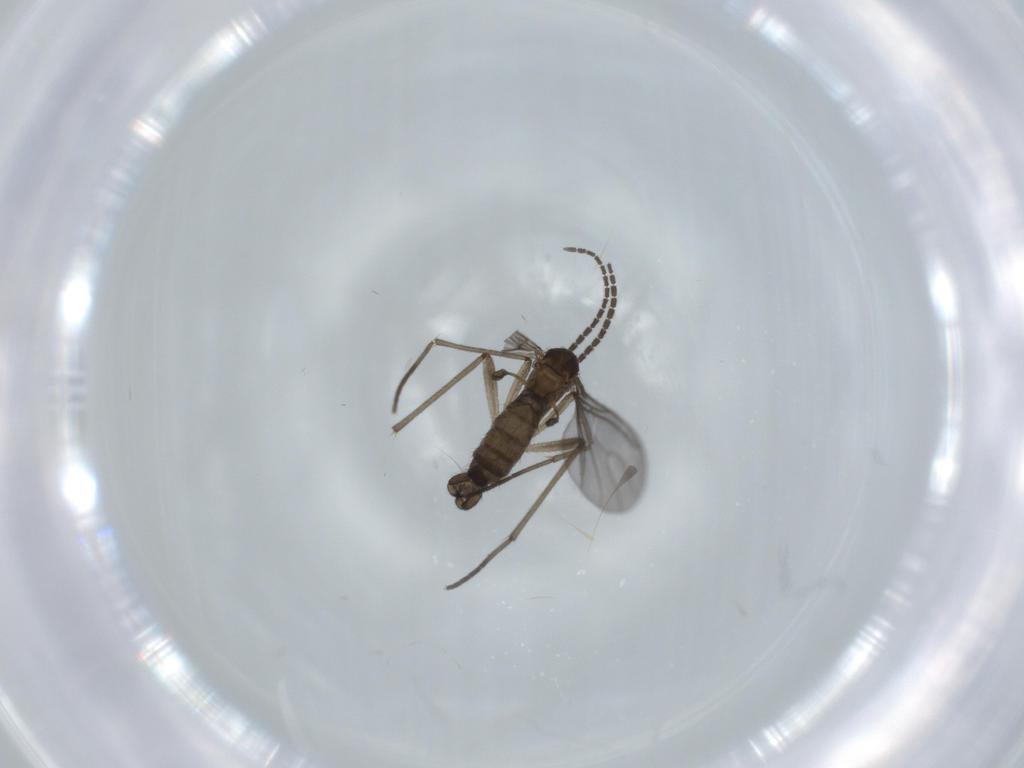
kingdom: Animalia
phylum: Arthropoda
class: Insecta
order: Diptera
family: Sciaridae
